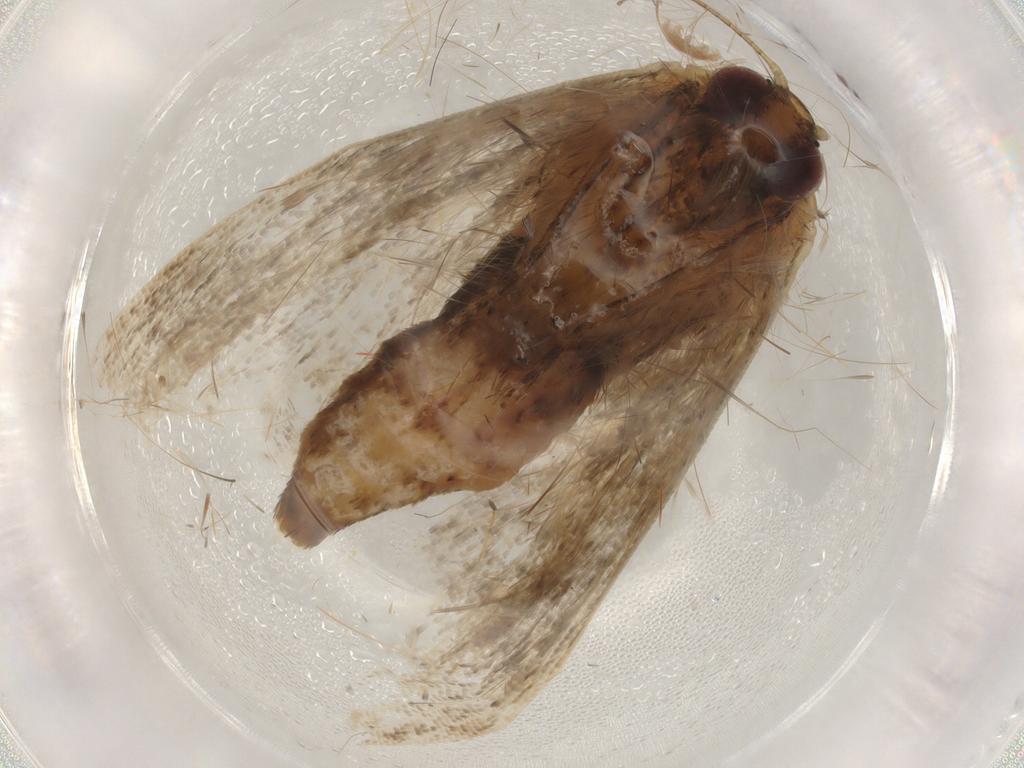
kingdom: Animalia
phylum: Arthropoda
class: Insecta
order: Lepidoptera
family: Erebidae
